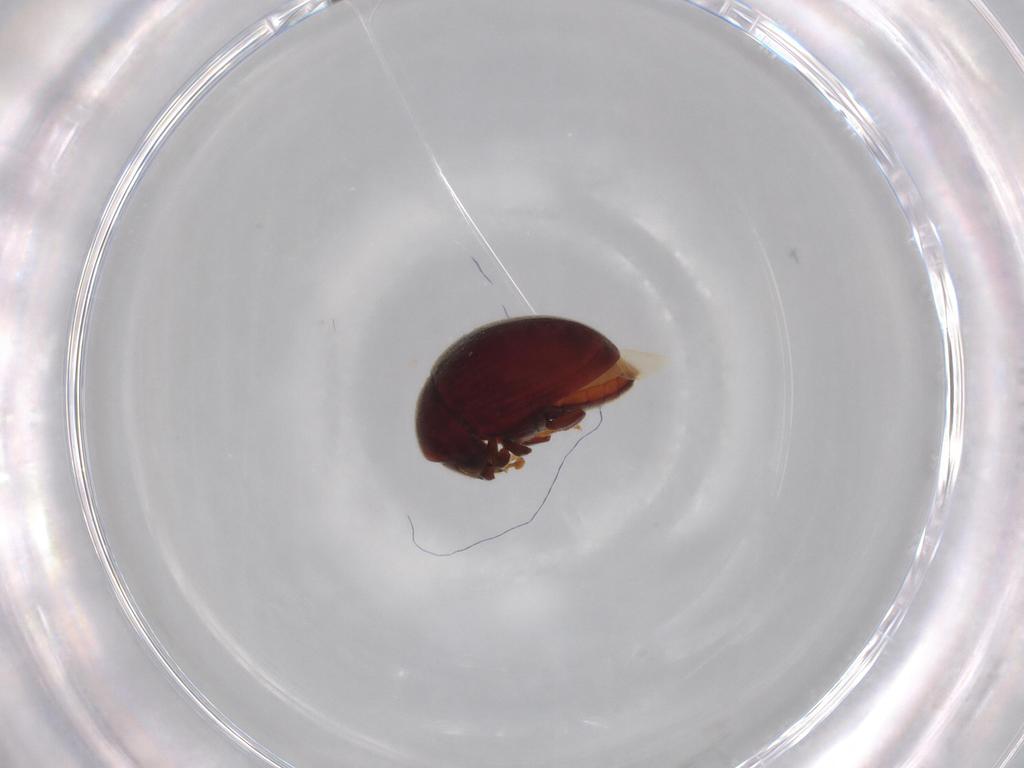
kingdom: Animalia
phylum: Arthropoda
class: Insecta
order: Coleoptera
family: Ptinidae
